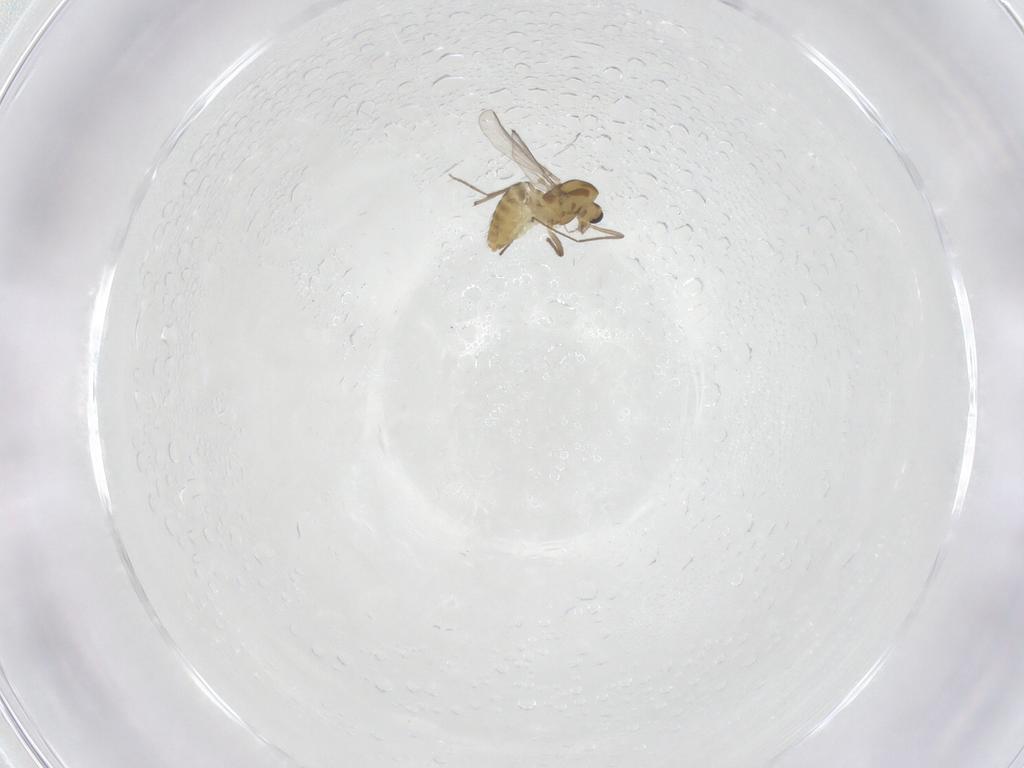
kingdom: Animalia
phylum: Arthropoda
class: Insecta
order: Diptera
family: Chironomidae
